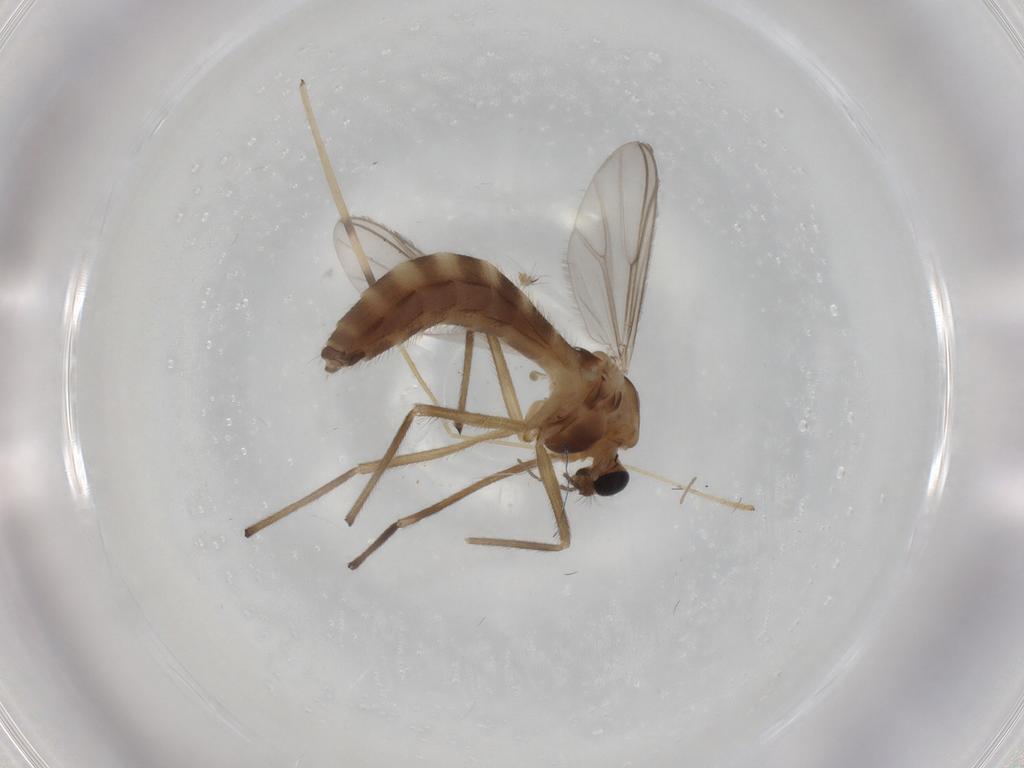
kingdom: Animalia
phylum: Arthropoda
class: Insecta
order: Diptera
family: Chironomidae
